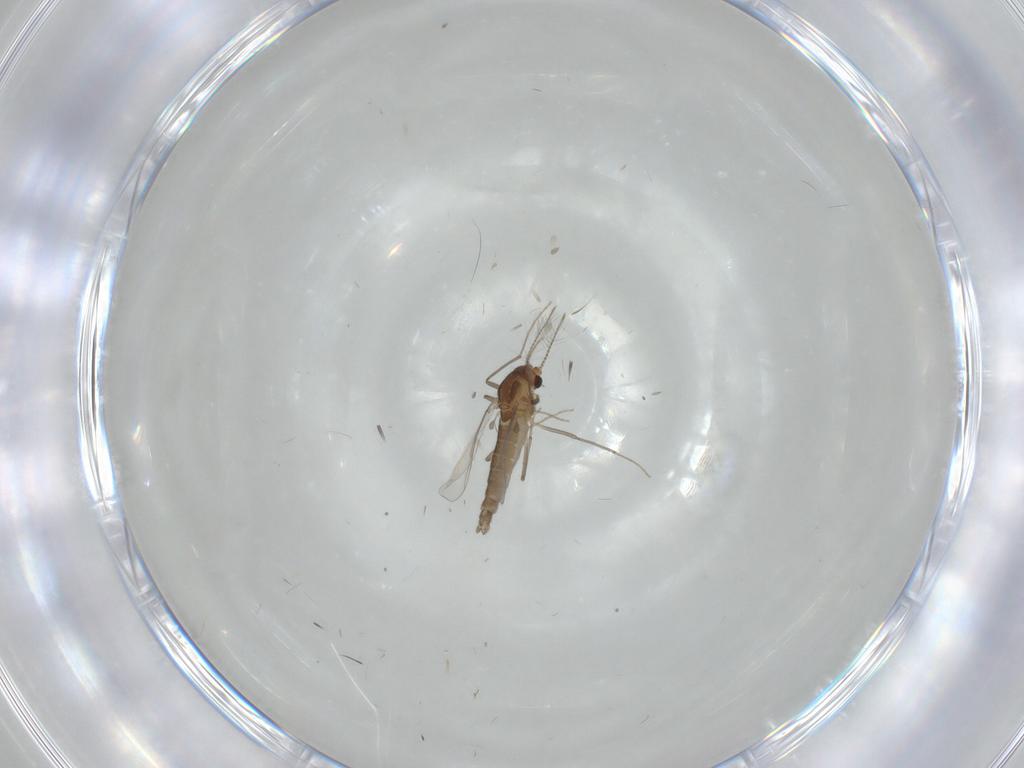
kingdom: Animalia
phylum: Arthropoda
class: Insecta
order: Diptera
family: Chironomidae
